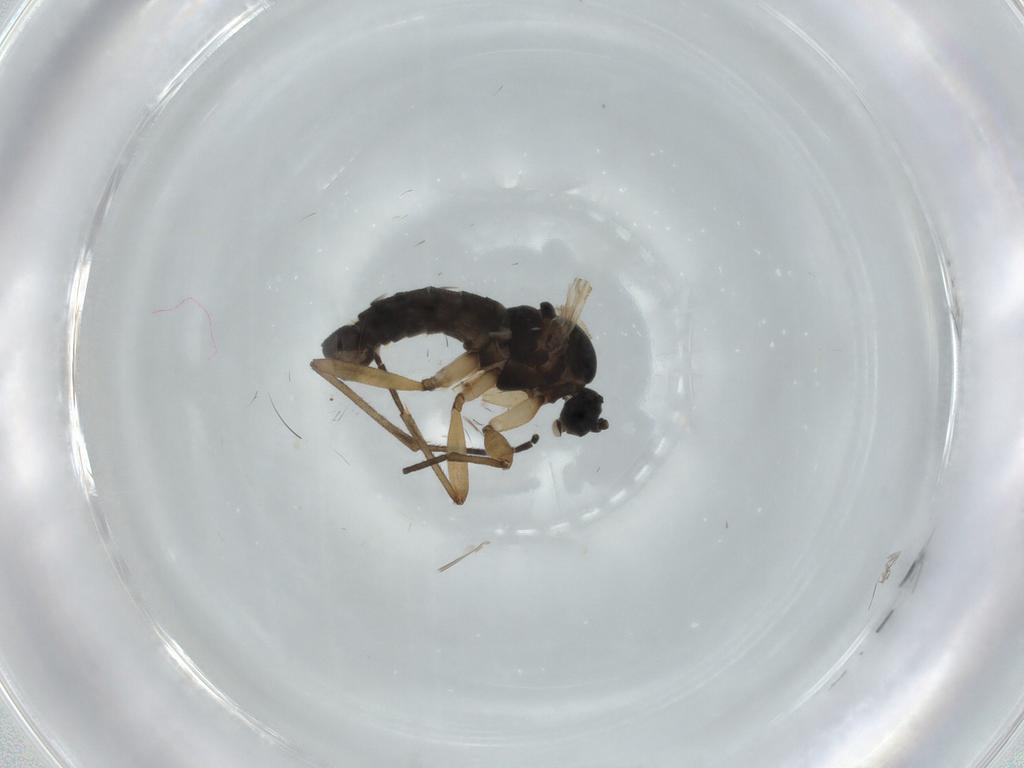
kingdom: Animalia
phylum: Arthropoda
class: Insecta
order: Diptera
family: Sciaridae
